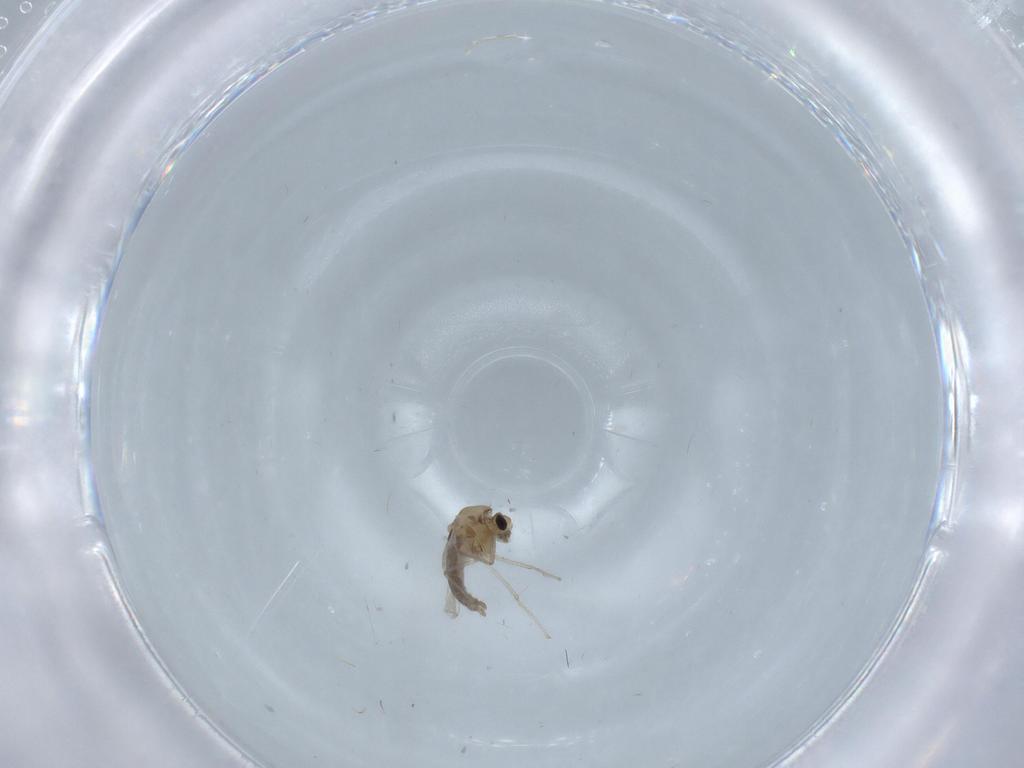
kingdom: Animalia
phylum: Arthropoda
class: Insecta
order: Diptera
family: Chironomidae
